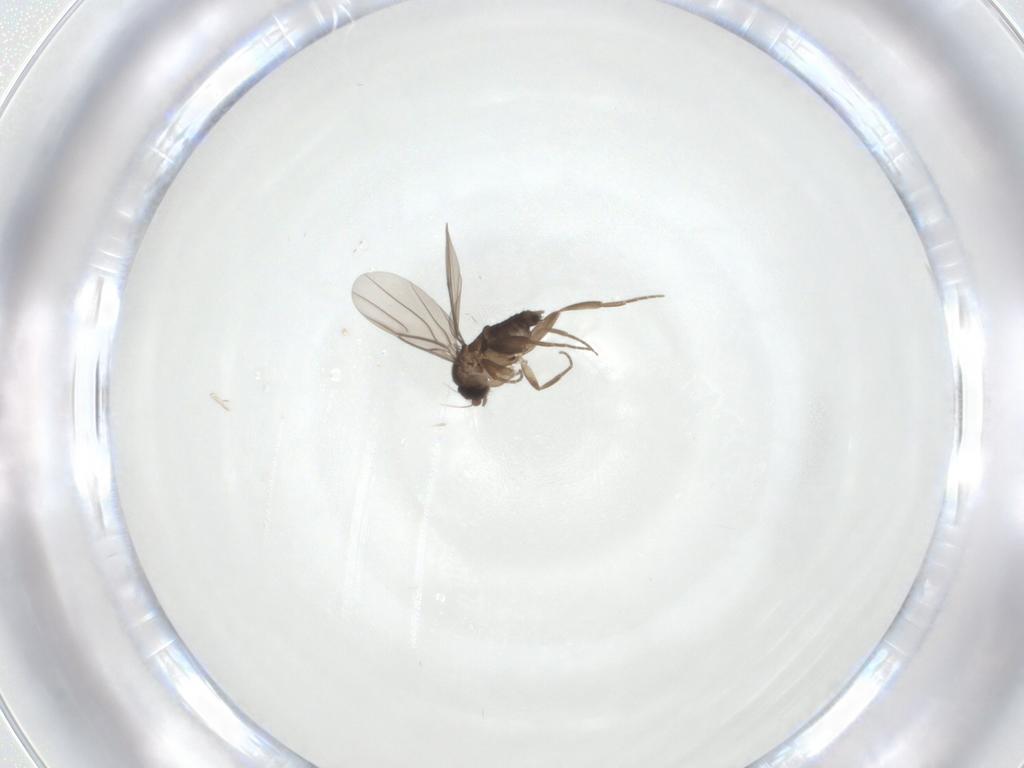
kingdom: Animalia
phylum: Arthropoda
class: Insecta
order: Diptera
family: Phoridae
